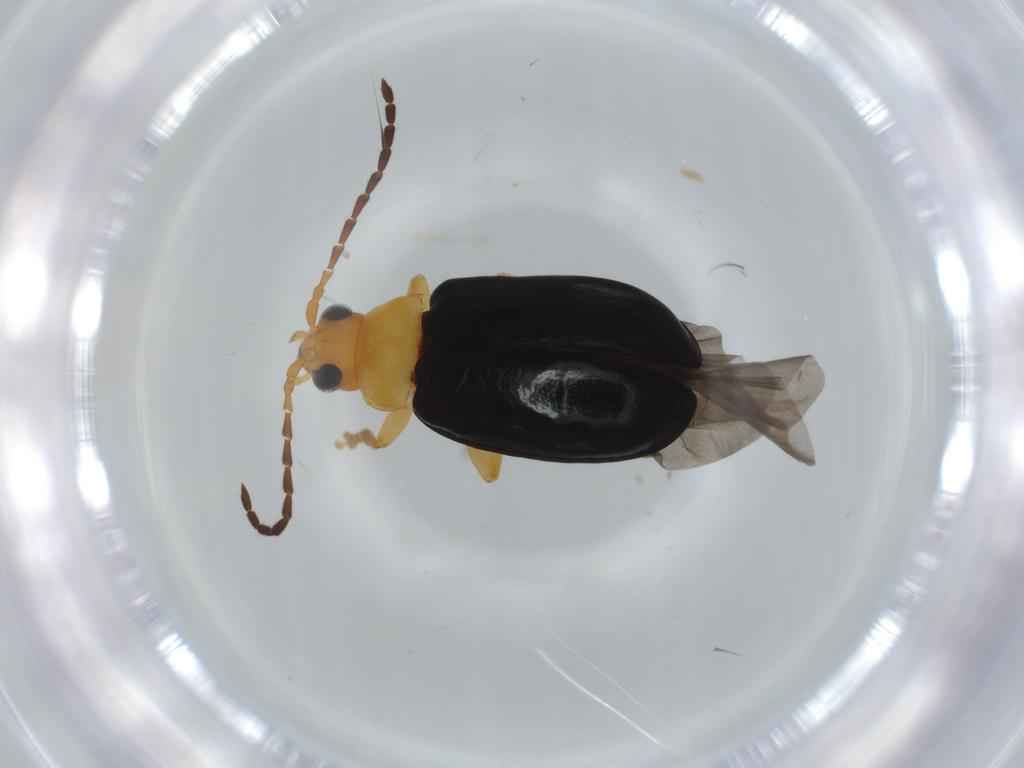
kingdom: Animalia
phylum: Arthropoda
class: Insecta
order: Coleoptera
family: Chrysomelidae
